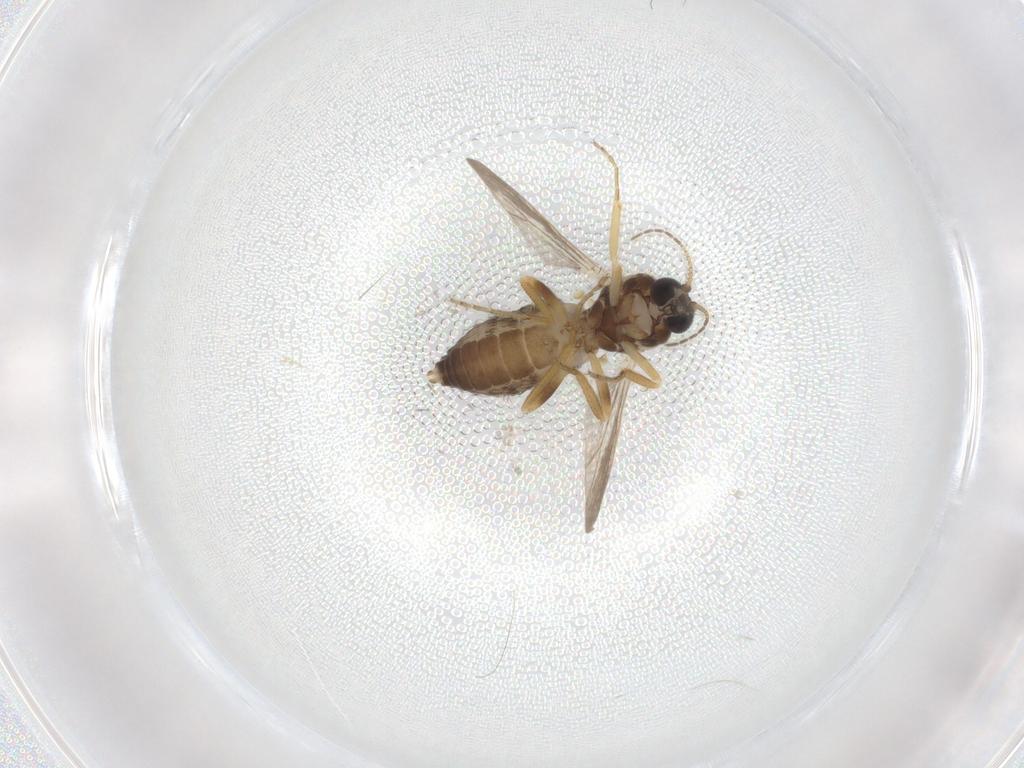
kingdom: Animalia
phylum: Arthropoda
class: Insecta
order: Diptera
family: Ceratopogonidae
